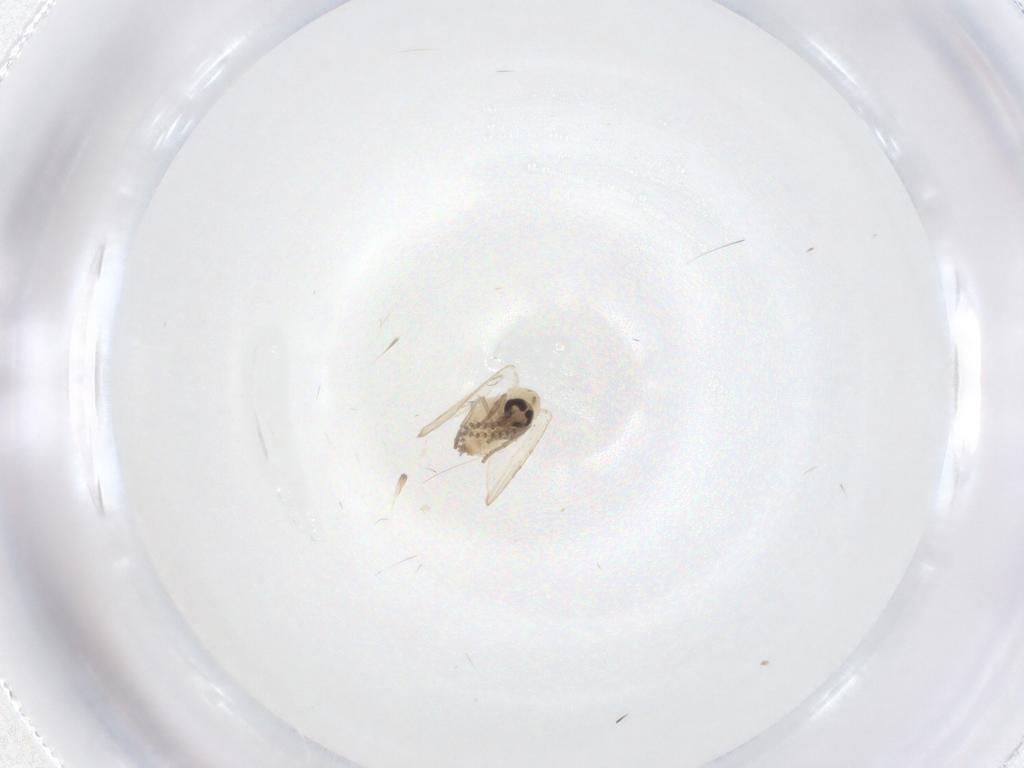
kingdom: Animalia
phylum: Arthropoda
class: Insecta
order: Diptera
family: Psychodidae
